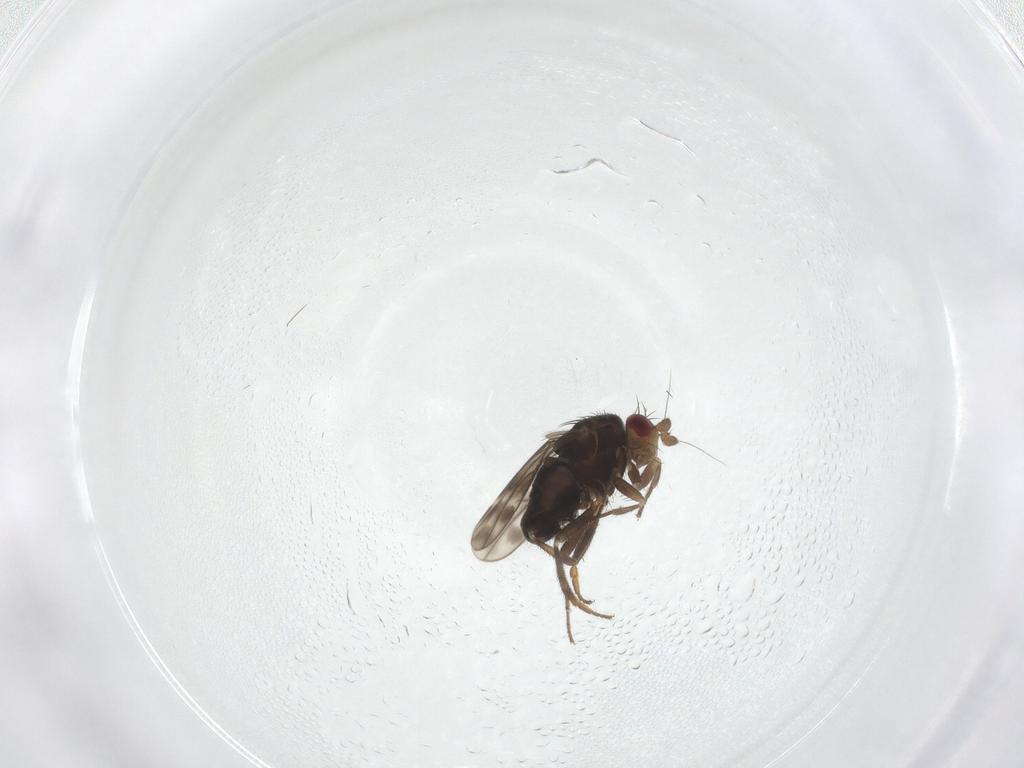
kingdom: Animalia
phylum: Arthropoda
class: Insecta
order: Diptera
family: Sphaeroceridae
